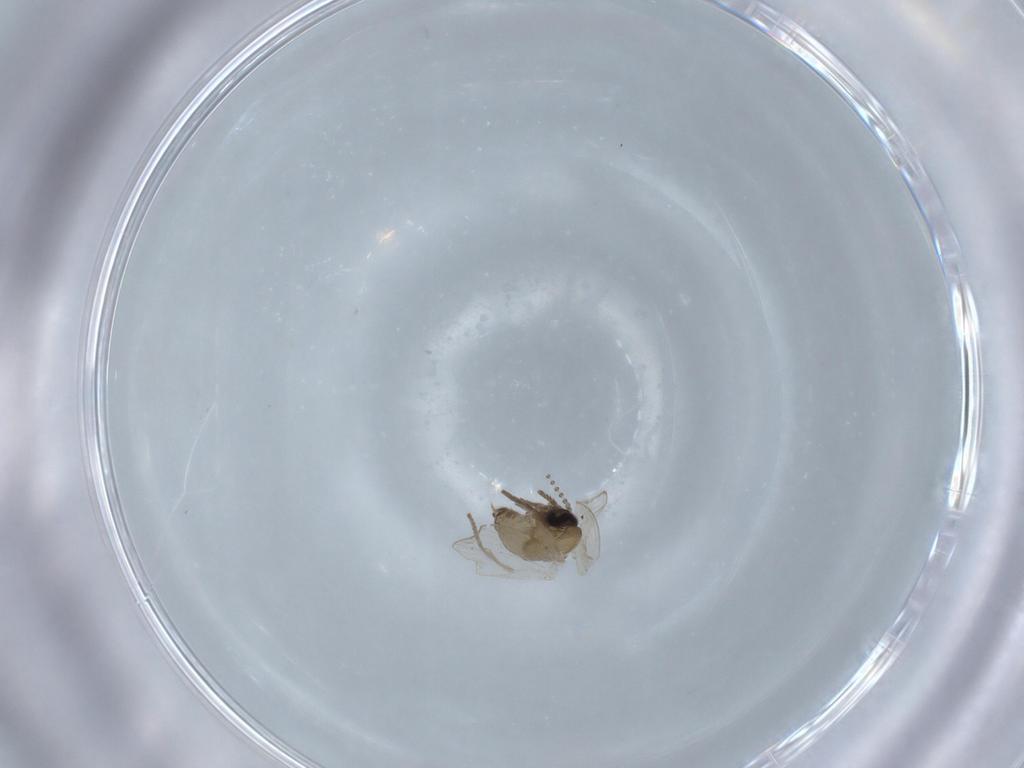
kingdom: Animalia
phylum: Arthropoda
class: Insecta
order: Diptera
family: Psychodidae
